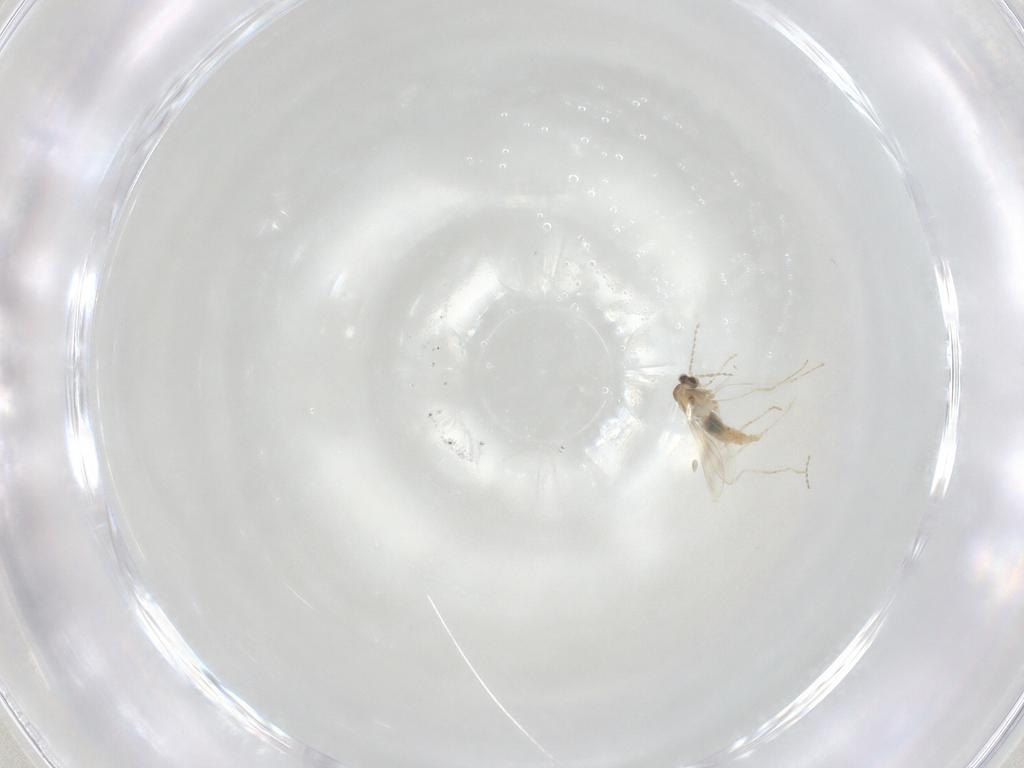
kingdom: Animalia
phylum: Arthropoda
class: Insecta
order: Diptera
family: Cecidomyiidae
